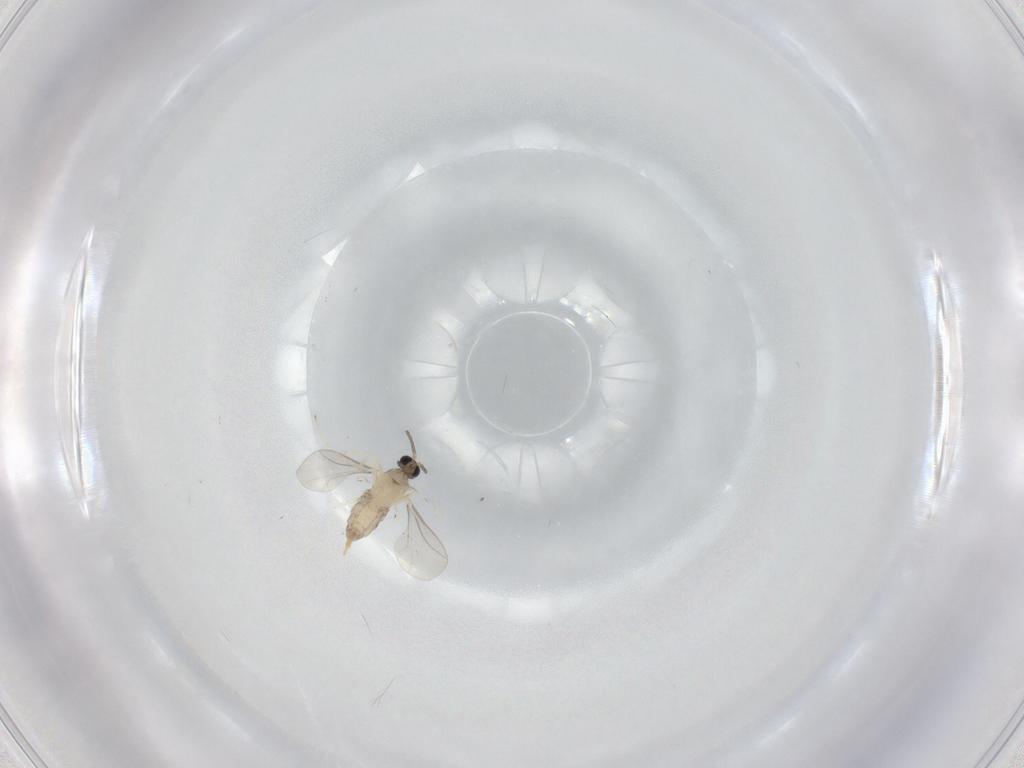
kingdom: Animalia
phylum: Arthropoda
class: Insecta
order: Diptera
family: Cecidomyiidae
